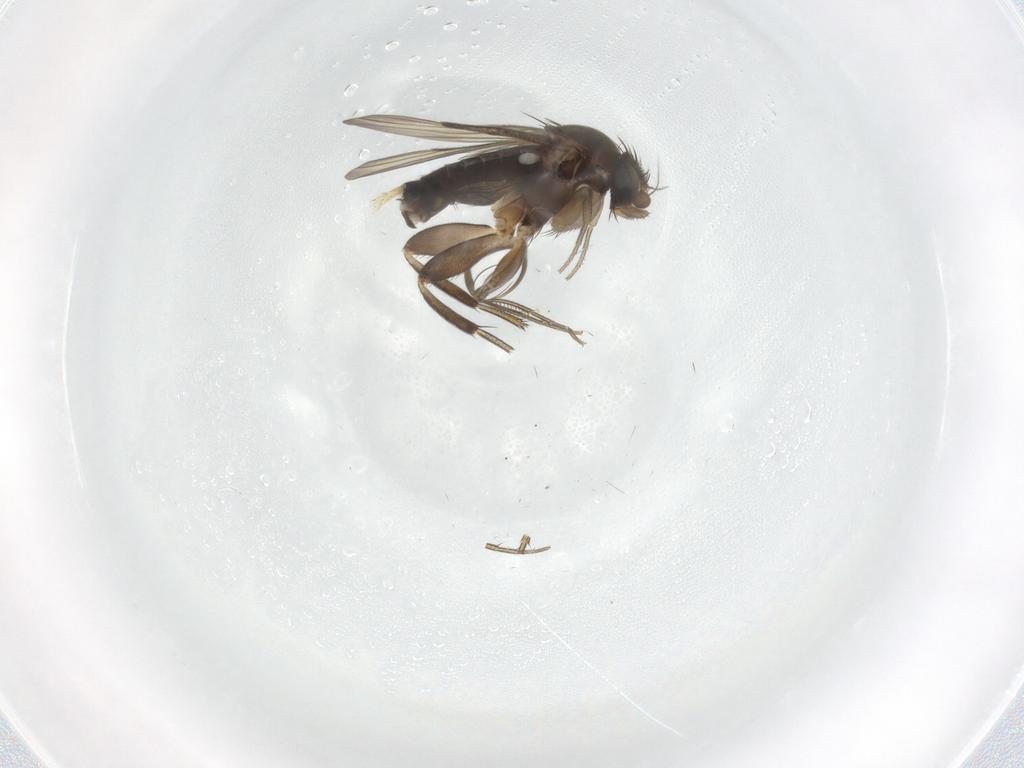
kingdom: Animalia
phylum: Arthropoda
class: Insecta
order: Diptera
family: Phoridae
